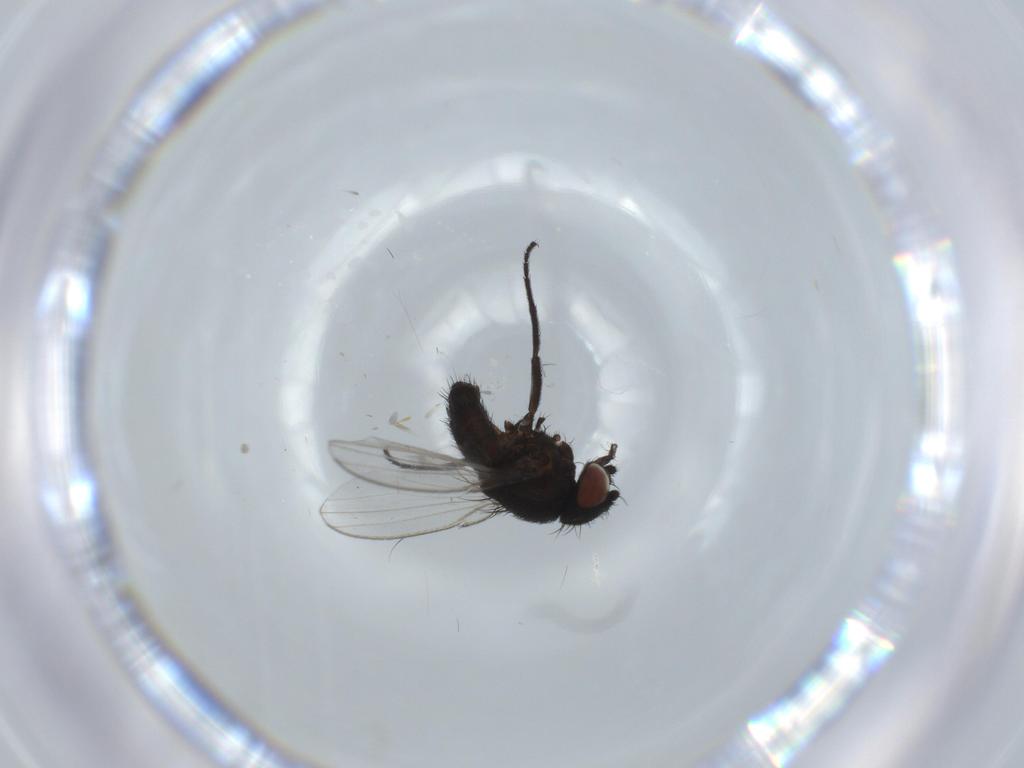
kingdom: Animalia
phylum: Arthropoda
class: Insecta
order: Diptera
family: Milichiidae
